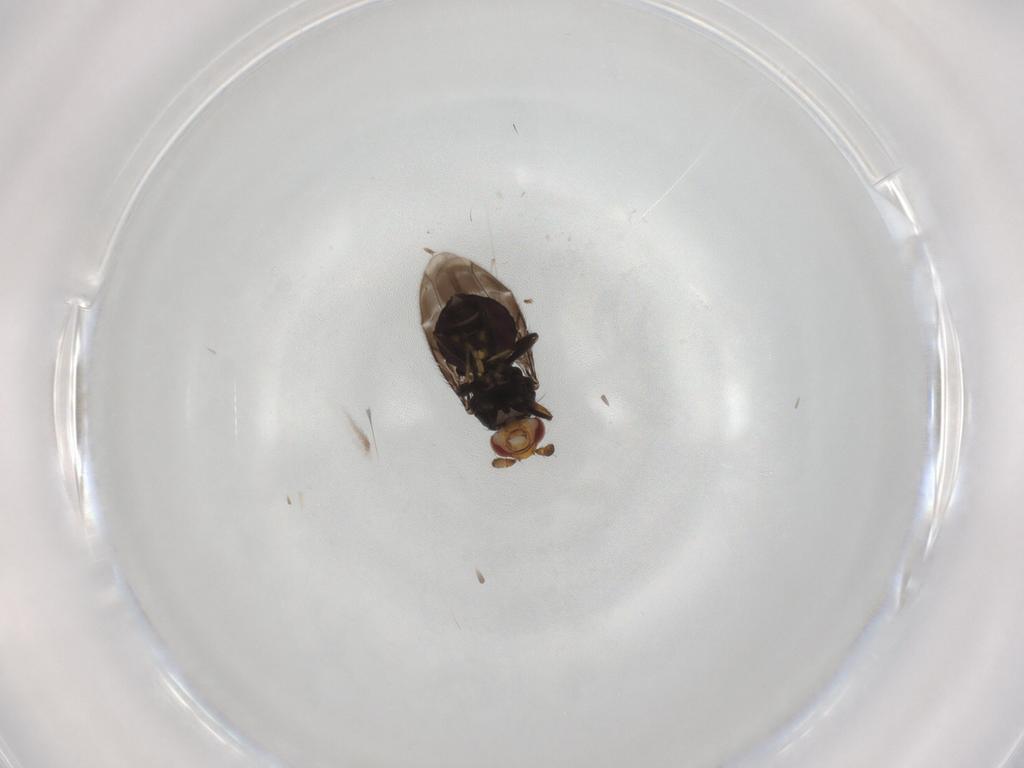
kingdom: Animalia
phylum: Arthropoda
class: Insecta
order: Diptera
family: Sphaeroceridae
